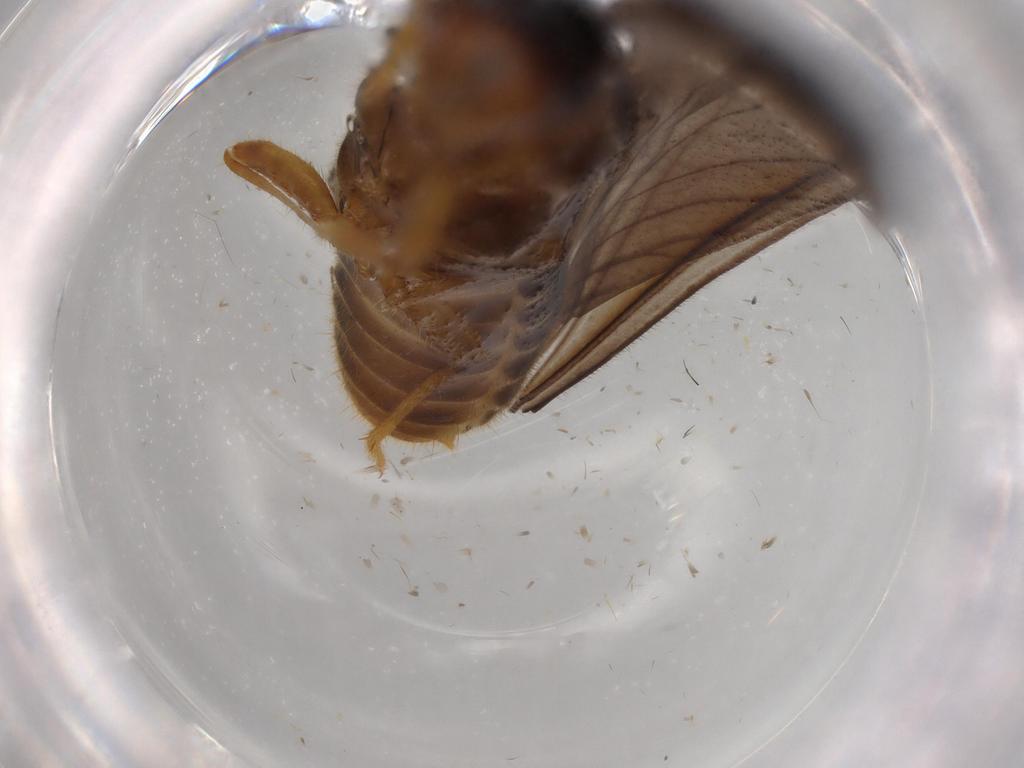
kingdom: Animalia
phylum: Arthropoda
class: Insecta
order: Blattodea
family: Termitidae
